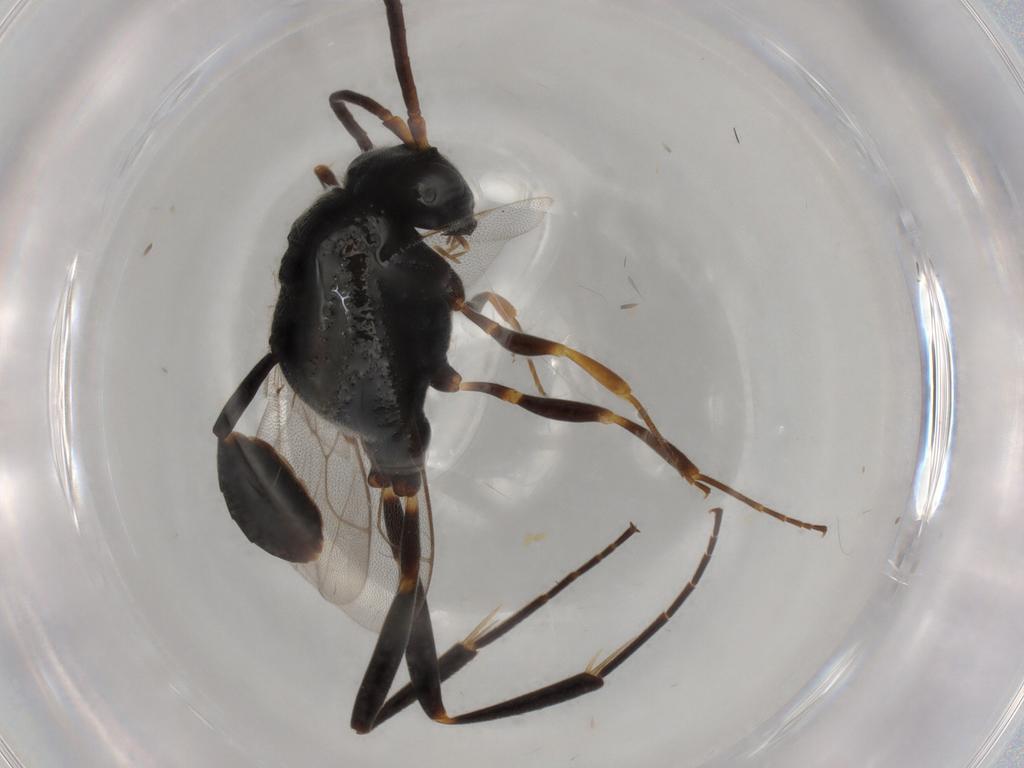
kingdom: Animalia
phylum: Arthropoda
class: Insecta
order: Hymenoptera
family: Evaniidae
